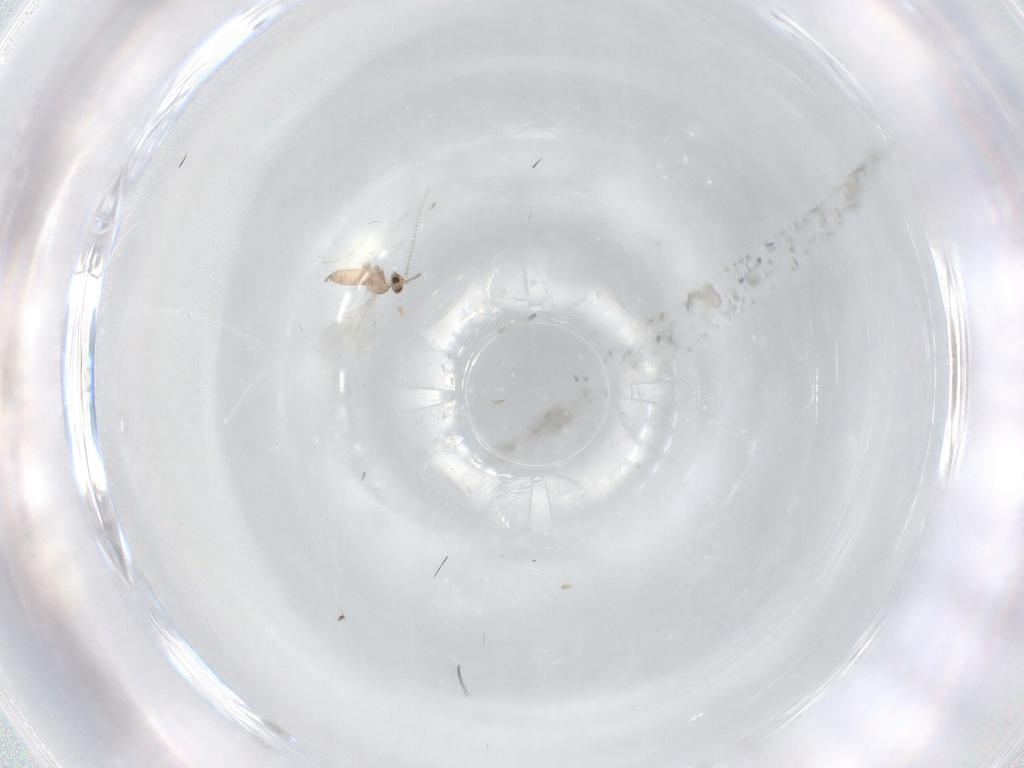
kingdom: Animalia
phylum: Arthropoda
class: Insecta
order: Diptera
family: Cecidomyiidae
